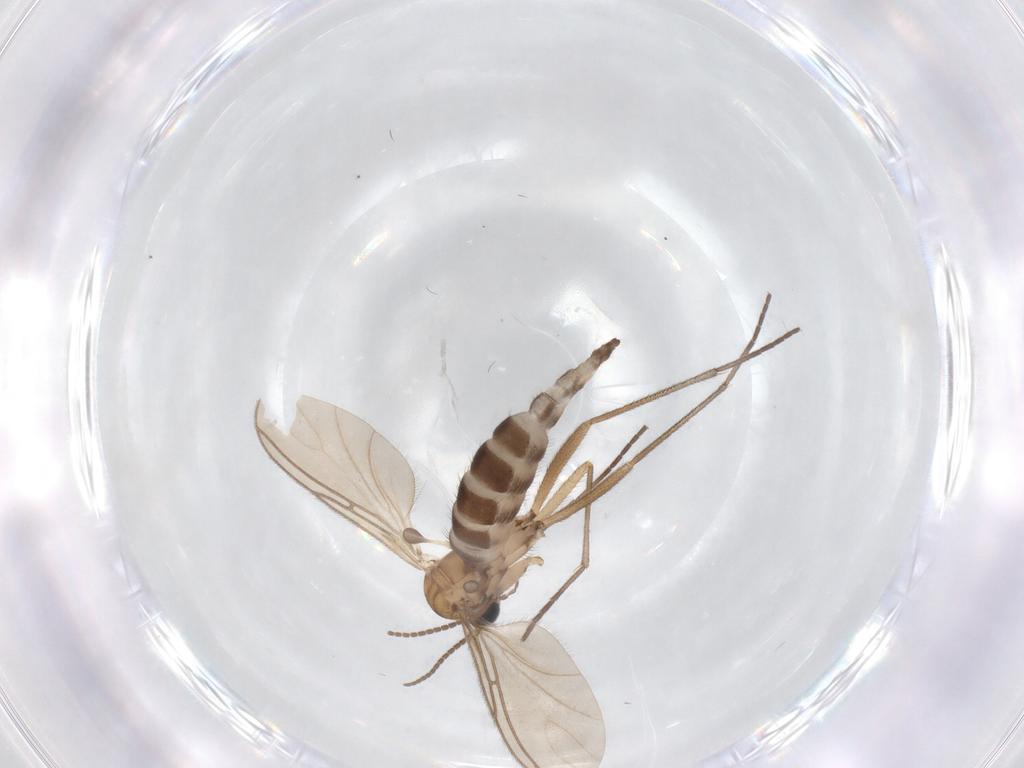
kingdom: Animalia
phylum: Arthropoda
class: Insecta
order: Diptera
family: Sciaridae
